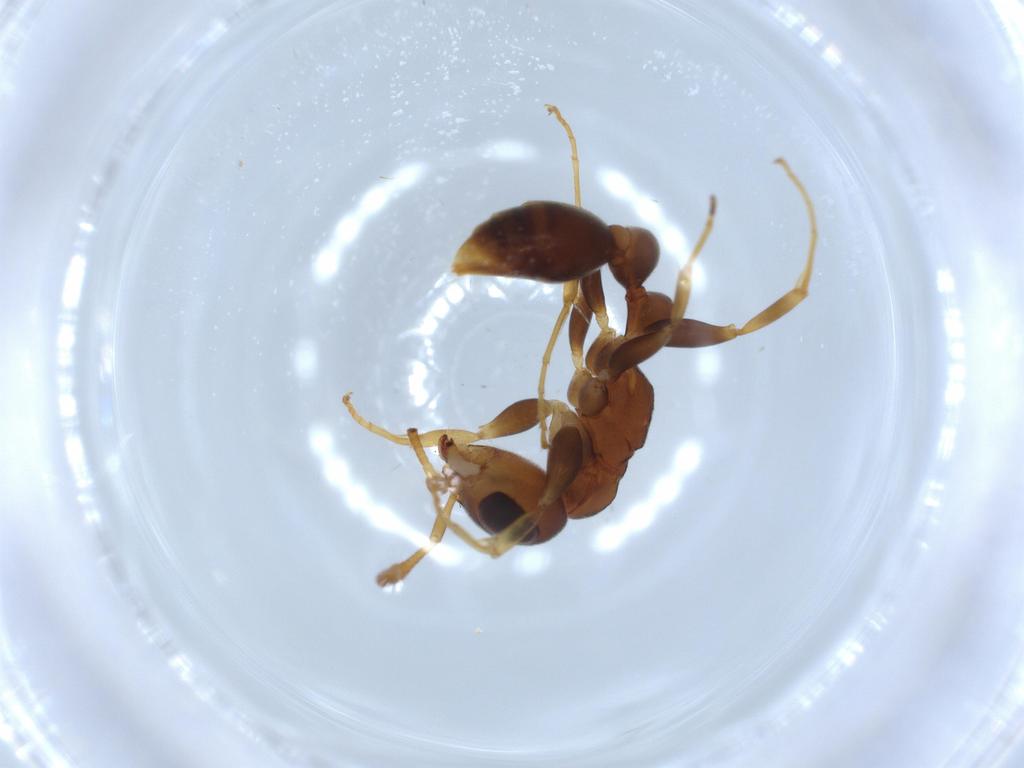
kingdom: Animalia
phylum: Arthropoda
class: Insecta
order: Hymenoptera
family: Formicidae
